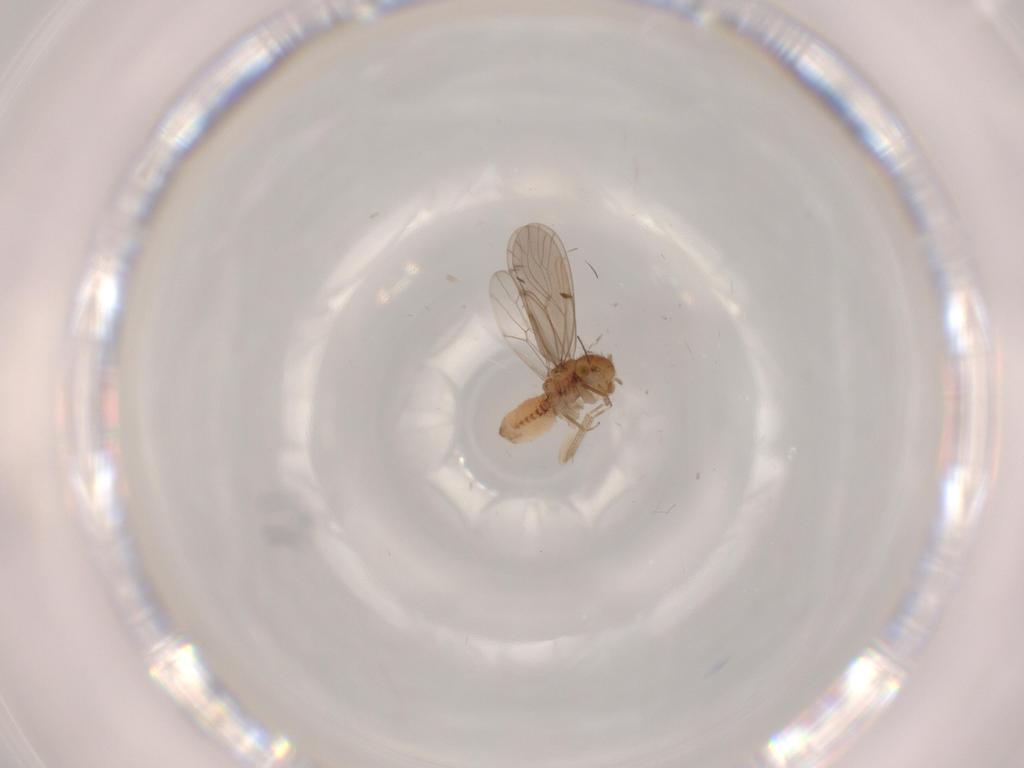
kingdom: Animalia
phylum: Arthropoda
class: Insecta
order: Psocodea
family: Ectopsocidae
